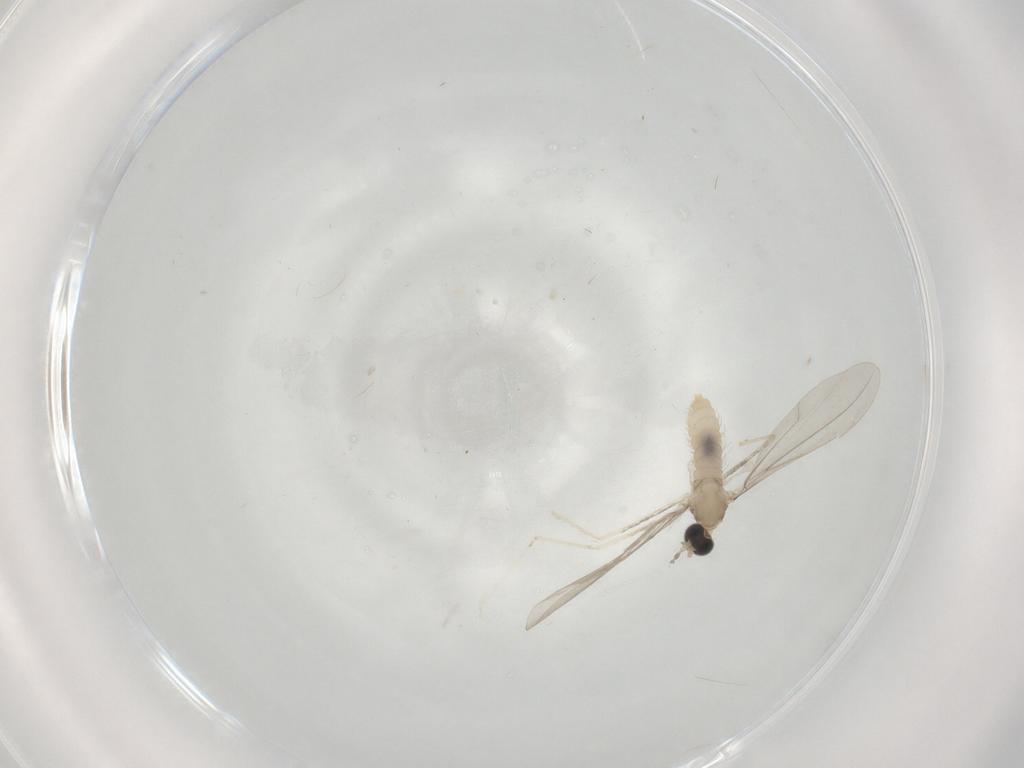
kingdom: Animalia
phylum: Arthropoda
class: Insecta
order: Diptera
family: Cecidomyiidae
